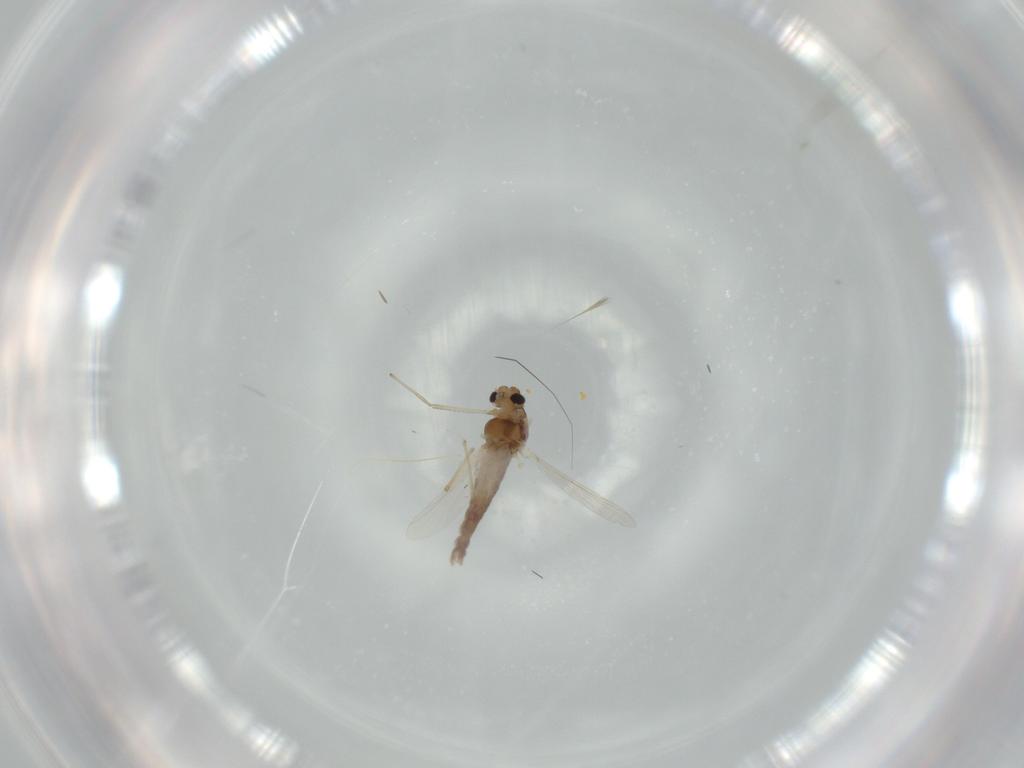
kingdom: Animalia
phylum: Arthropoda
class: Insecta
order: Diptera
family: Chironomidae
